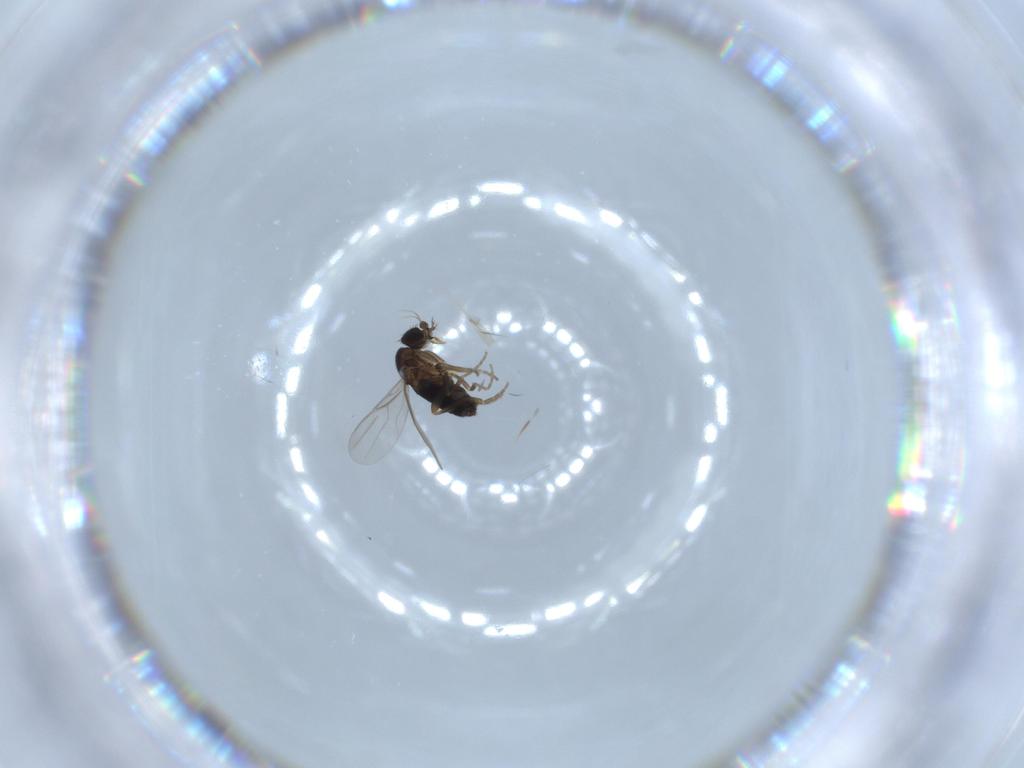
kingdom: Animalia
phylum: Arthropoda
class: Insecta
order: Diptera
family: Phoridae
